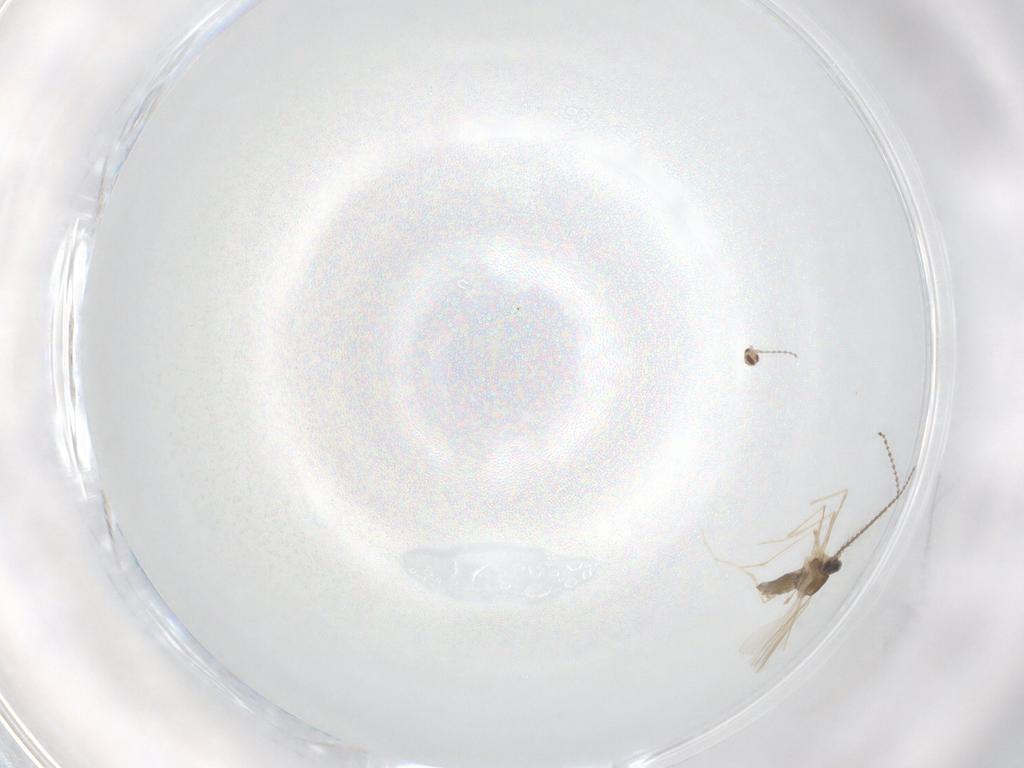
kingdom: Animalia
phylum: Arthropoda
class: Insecta
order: Diptera
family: Cecidomyiidae
